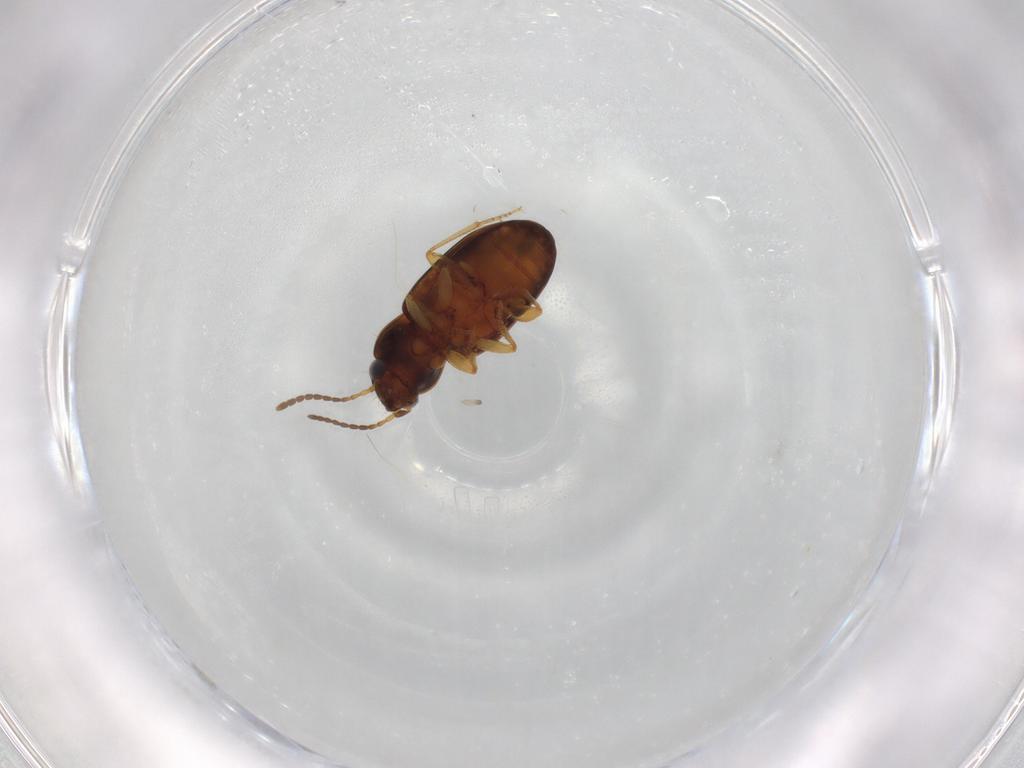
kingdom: Animalia
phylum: Arthropoda
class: Insecta
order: Coleoptera
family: Carabidae
